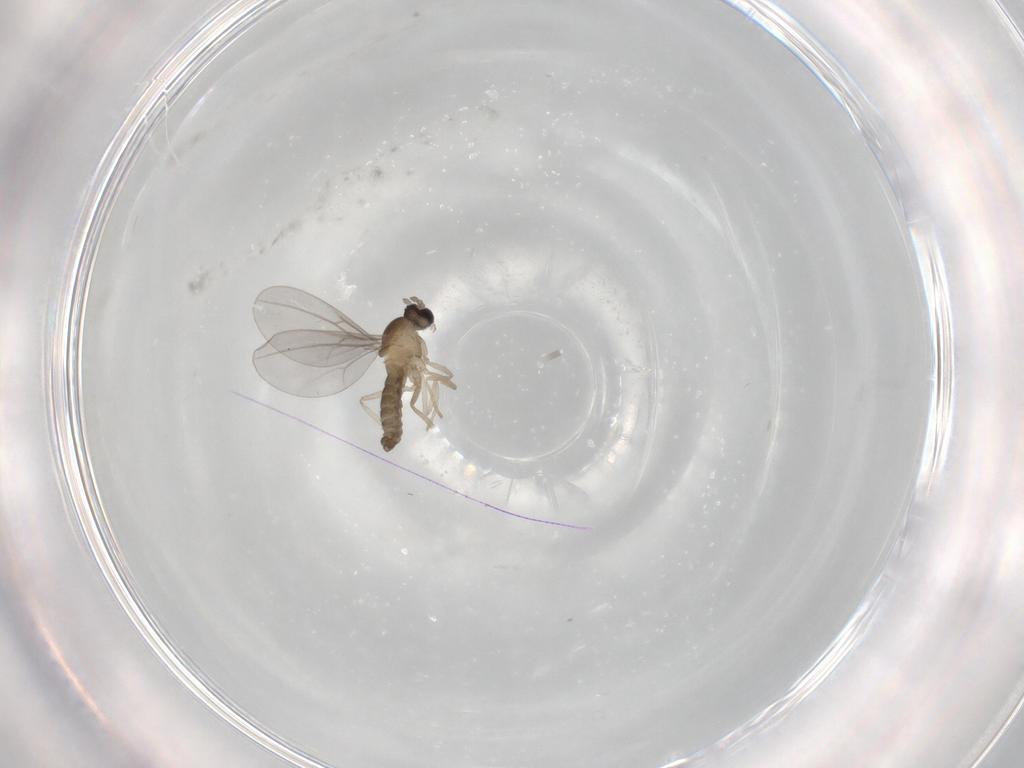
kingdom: Animalia
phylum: Arthropoda
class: Insecta
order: Diptera
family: Cecidomyiidae
